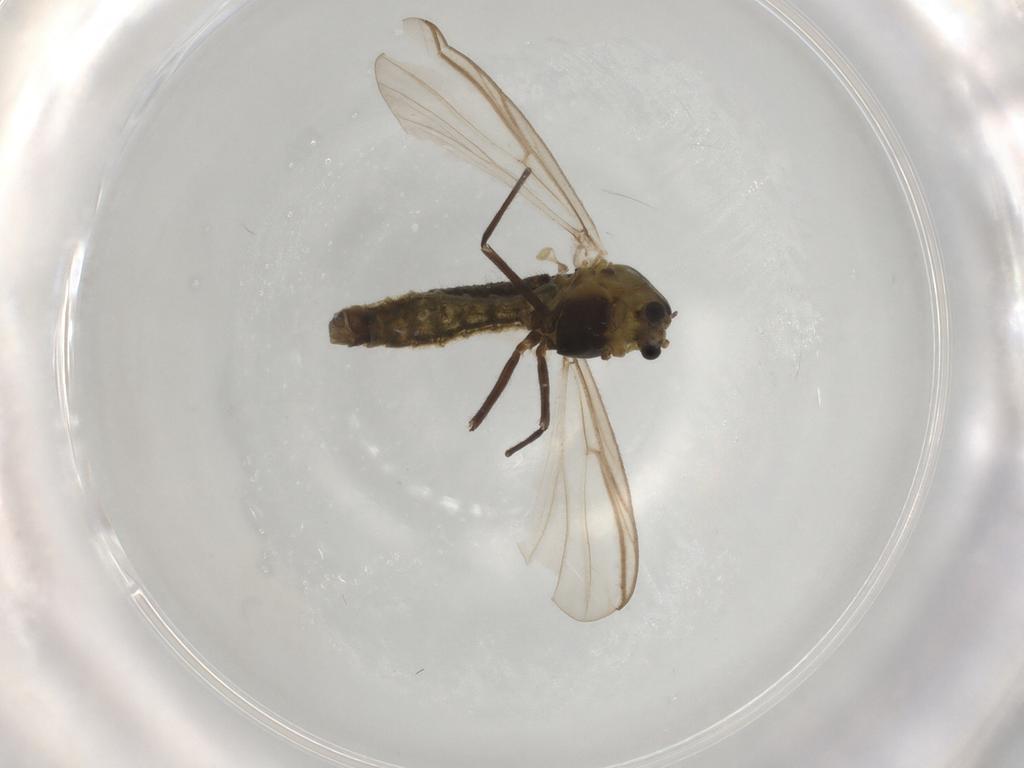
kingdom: Animalia
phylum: Arthropoda
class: Insecta
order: Diptera
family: Chironomidae
